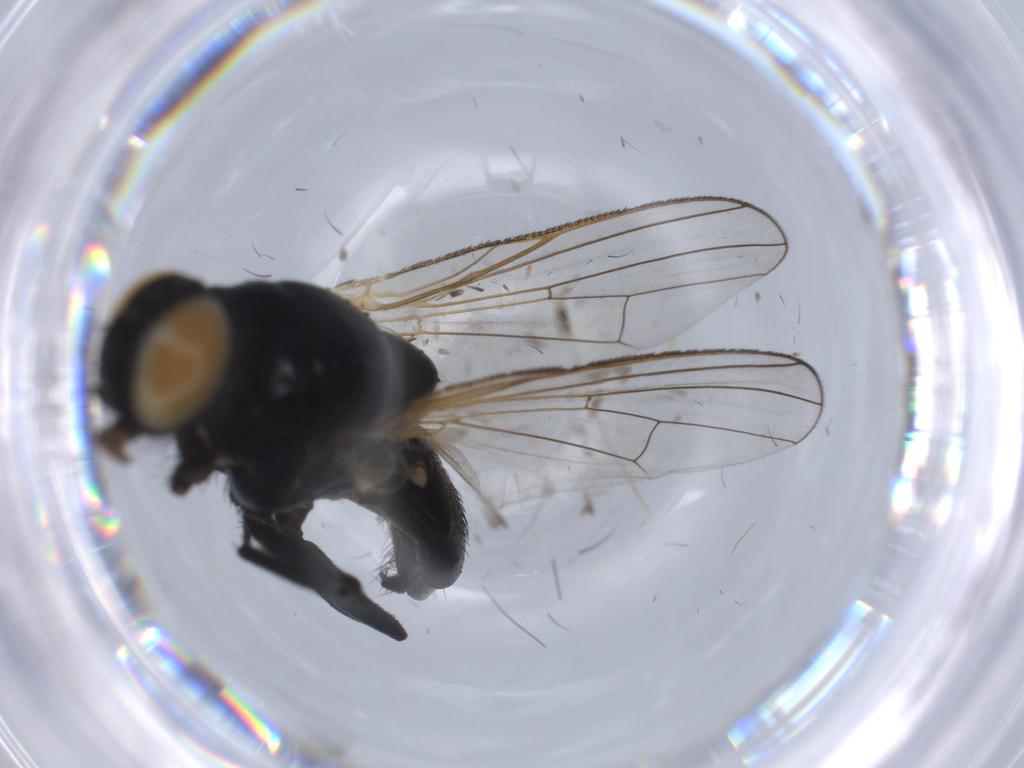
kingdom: Animalia
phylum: Arthropoda
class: Insecta
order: Diptera
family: Muscidae
